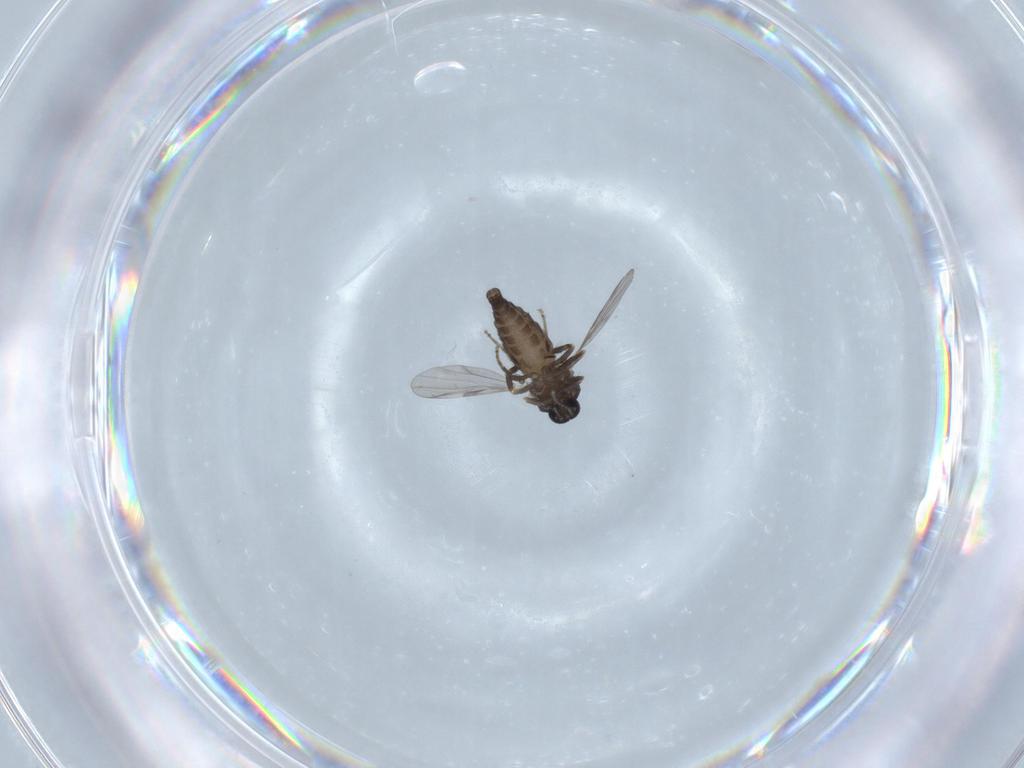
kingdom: Animalia
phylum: Arthropoda
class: Insecta
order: Diptera
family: Ceratopogonidae
